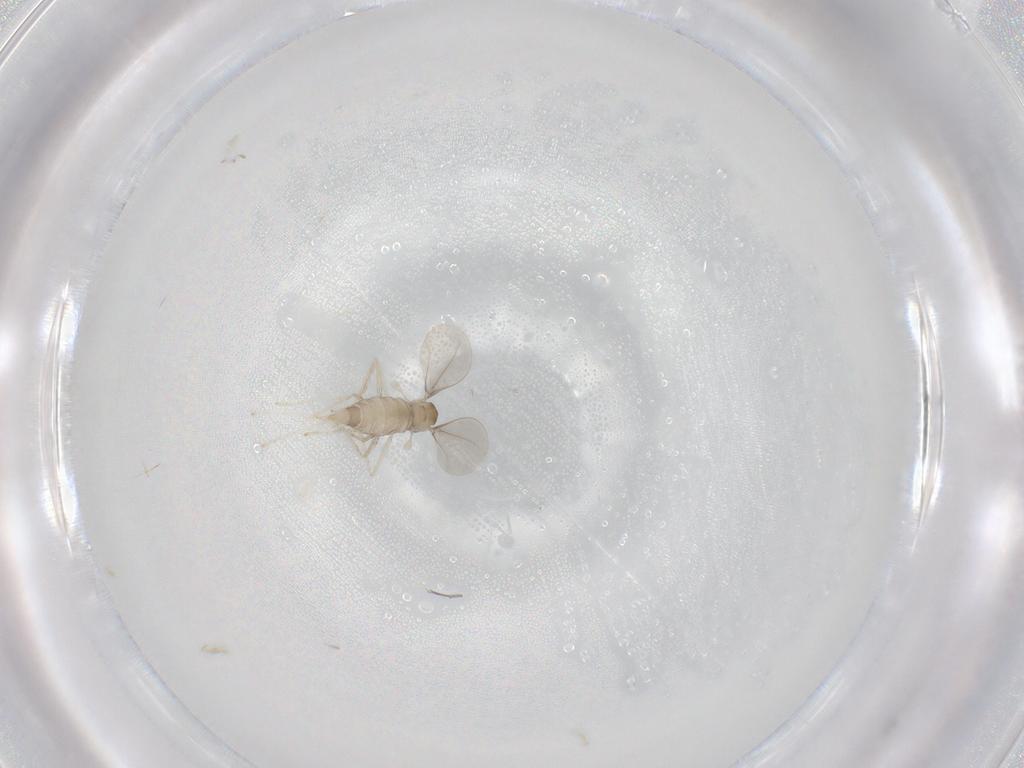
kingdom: Animalia
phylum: Arthropoda
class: Insecta
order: Diptera
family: Cecidomyiidae
